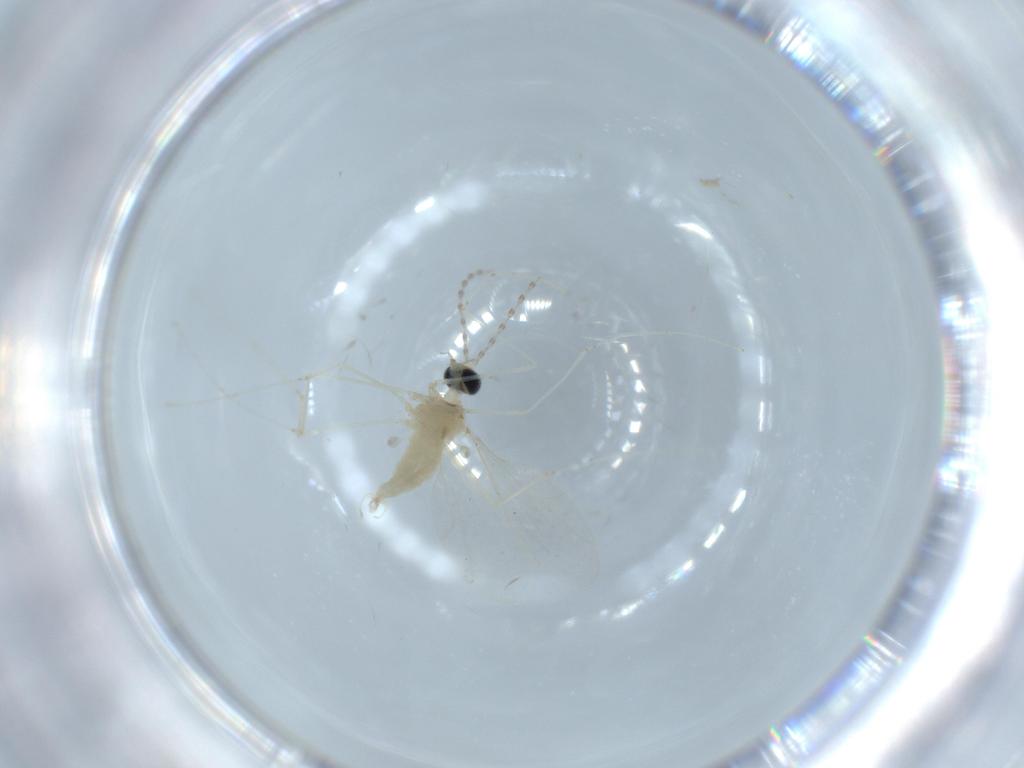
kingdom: Animalia
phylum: Arthropoda
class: Insecta
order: Diptera
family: Cecidomyiidae
